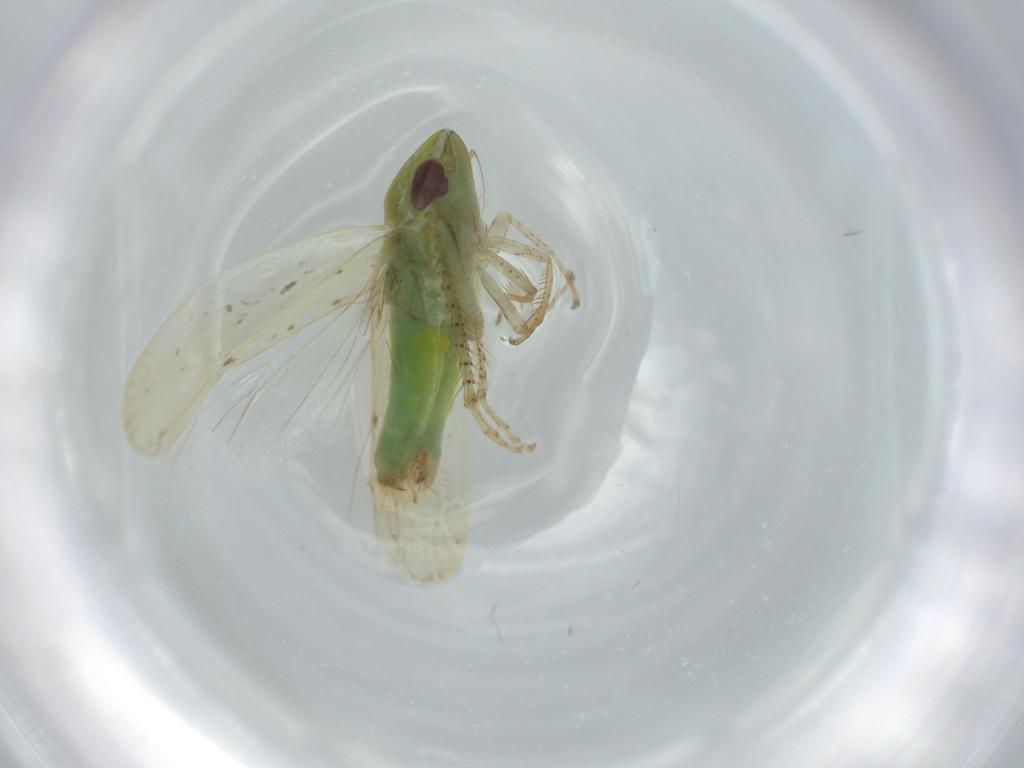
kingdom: Animalia
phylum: Arthropoda
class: Insecta
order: Hemiptera
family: Cicadellidae
